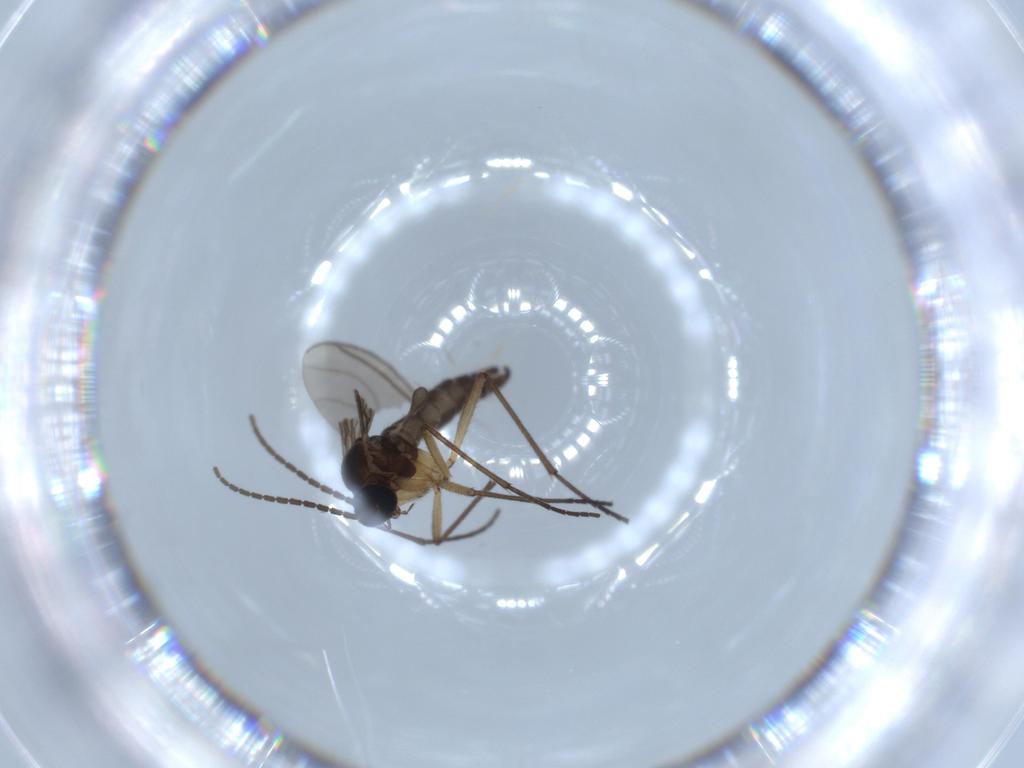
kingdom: Animalia
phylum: Arthropoda
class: Insecta
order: Diptera
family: Sciaridae
